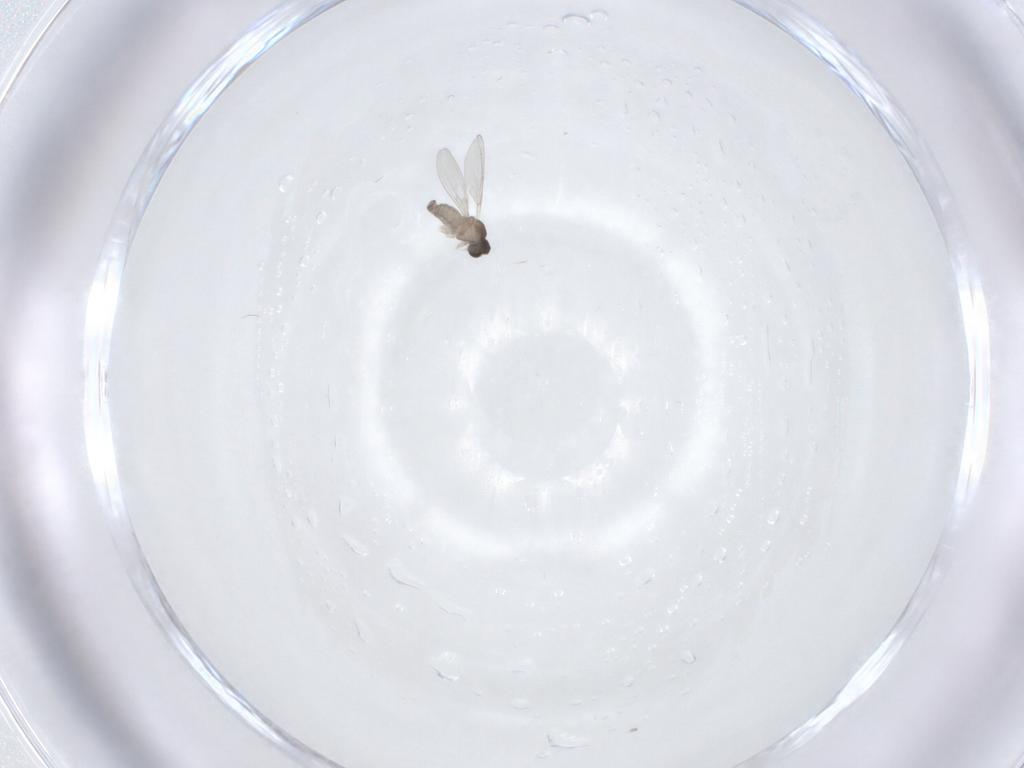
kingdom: Animalia
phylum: Arthropoda
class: Insecta
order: Diptera
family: Cecidomyiidae
